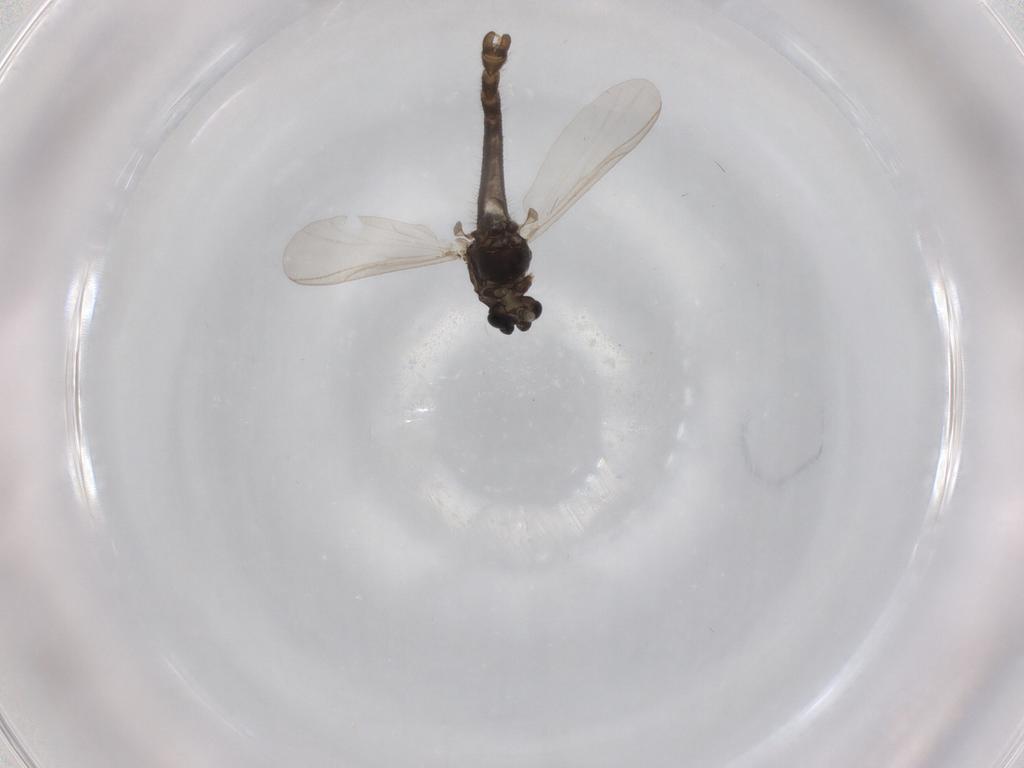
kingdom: Animalia
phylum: Arthropoda
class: Insecta
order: Diptera
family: Chironomidae
